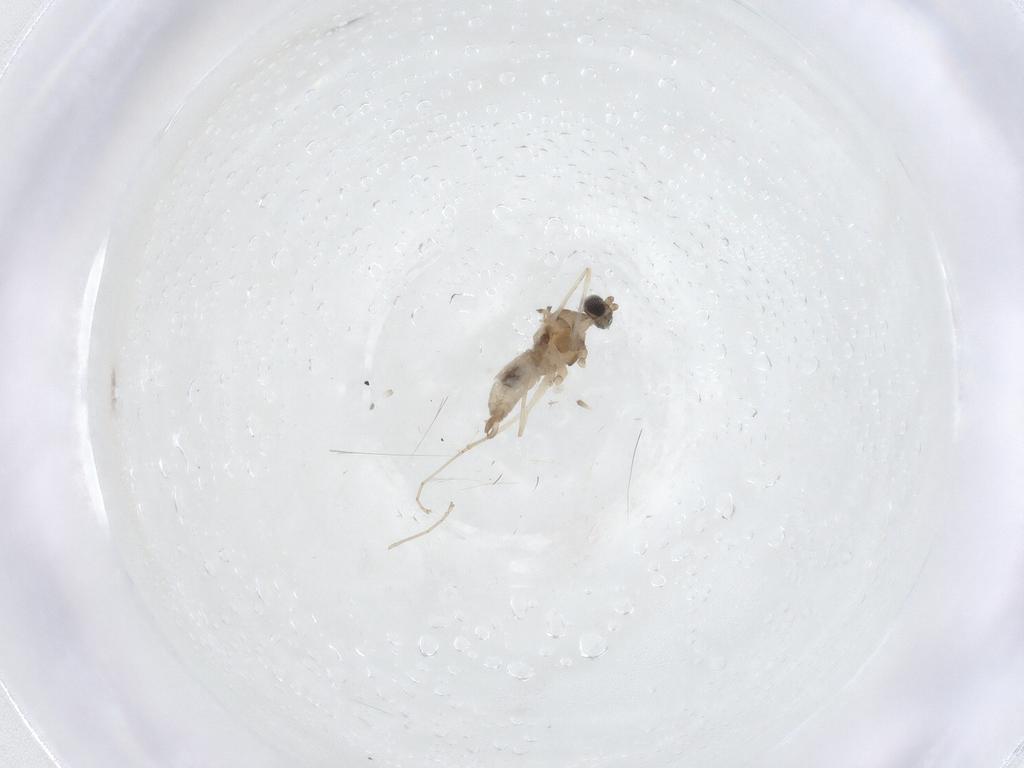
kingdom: Animalia
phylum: Arthropoda
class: Insecta
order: Diptera
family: Cecidomyiidae
